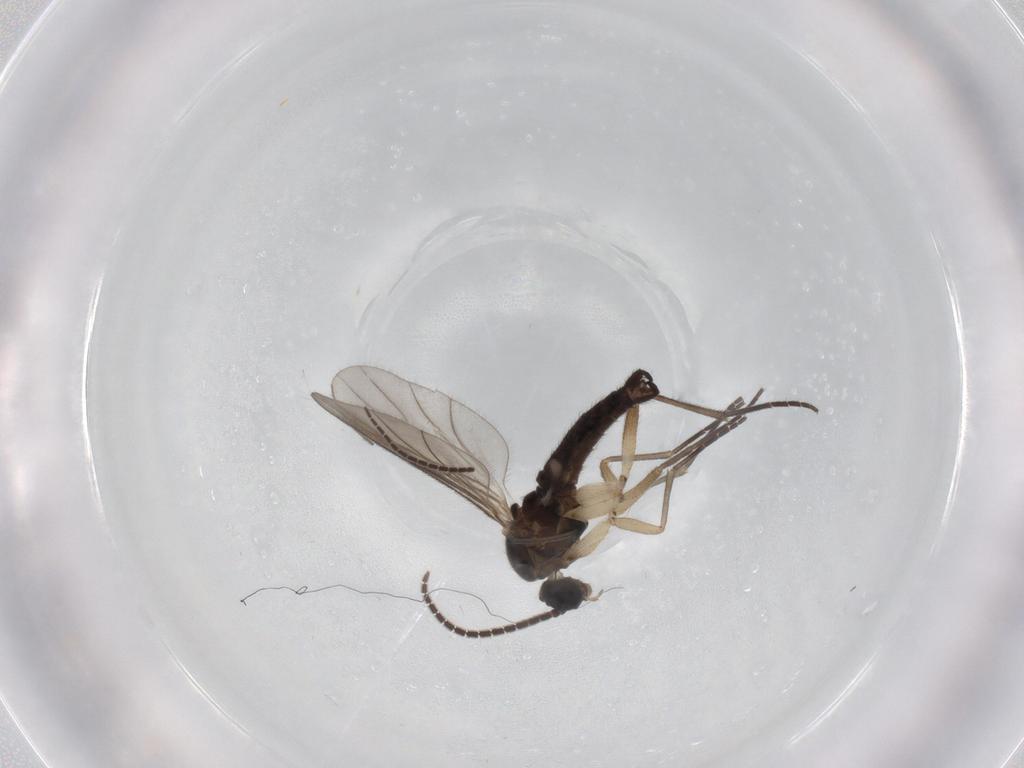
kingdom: Animalia
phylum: Arthropoda
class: Insecta
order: Diptera
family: Sciaridae
